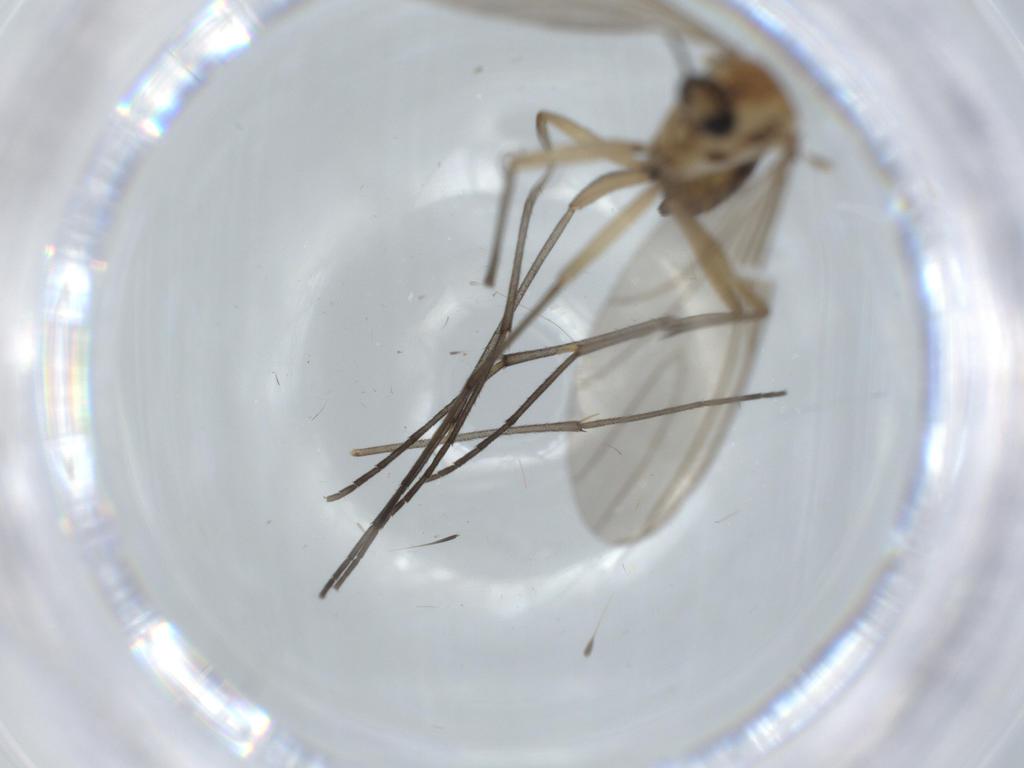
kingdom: Animalia
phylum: Arthropoda
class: Insecta
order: Diptera
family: Sciaridae
